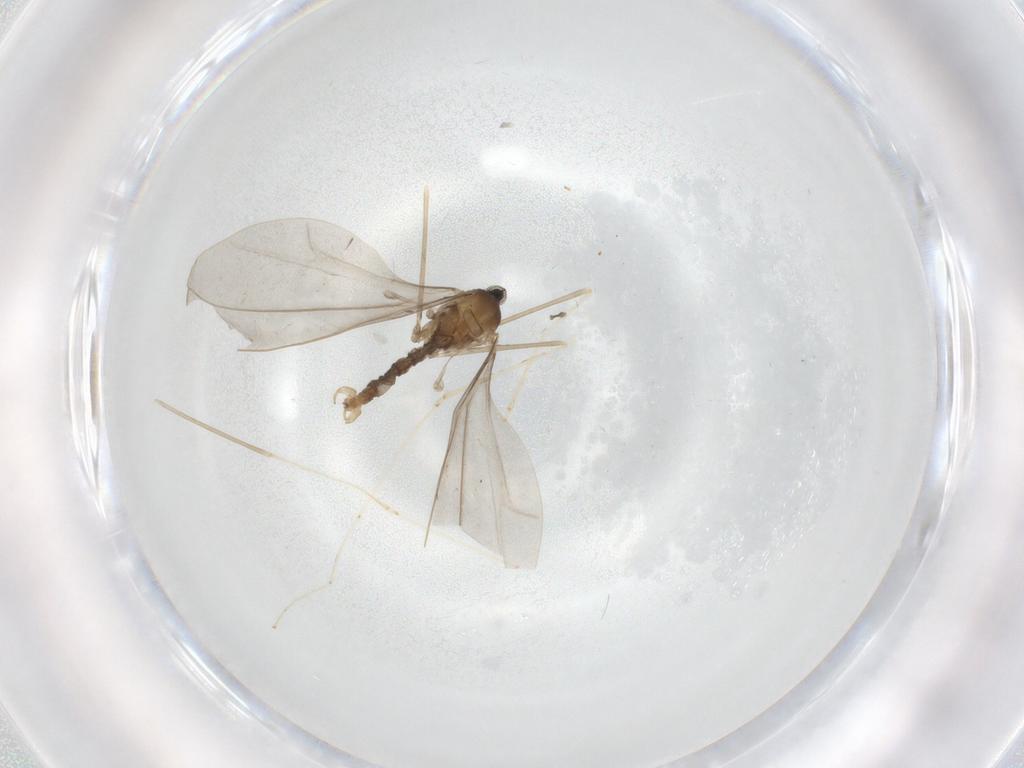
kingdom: Animalia
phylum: Arthropoda
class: Insecta
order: Diptera
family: Cecidomyiidae
